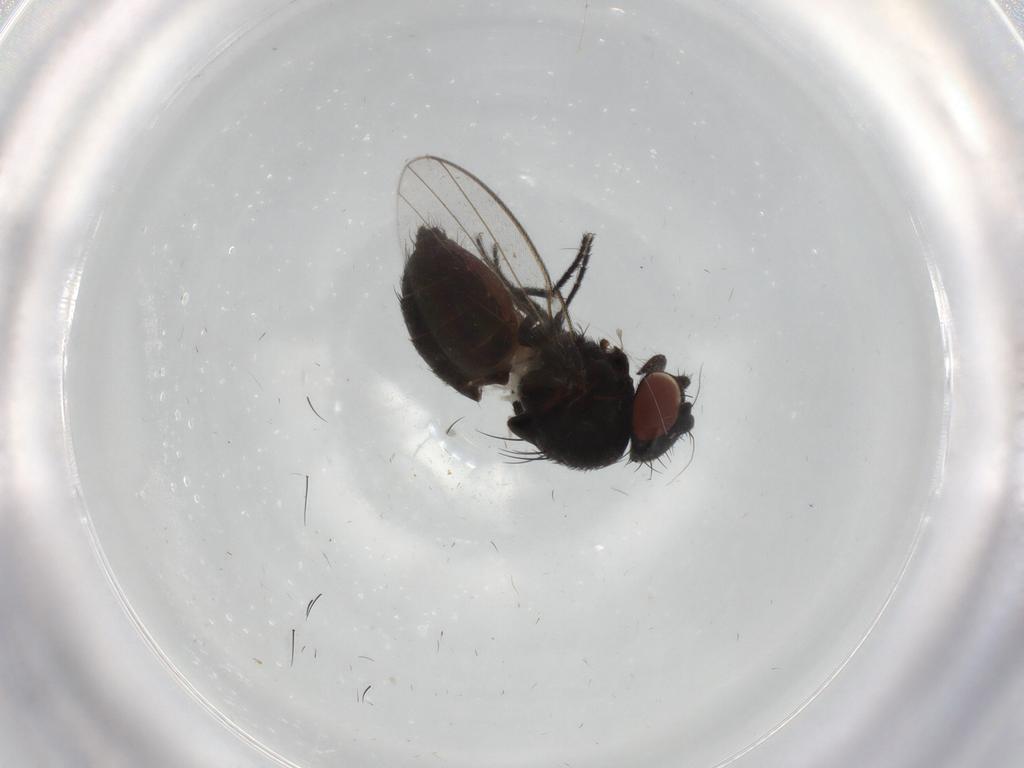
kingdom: Animalia
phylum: Arthropoda
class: Insecta
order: Diptera
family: Milichiidae
